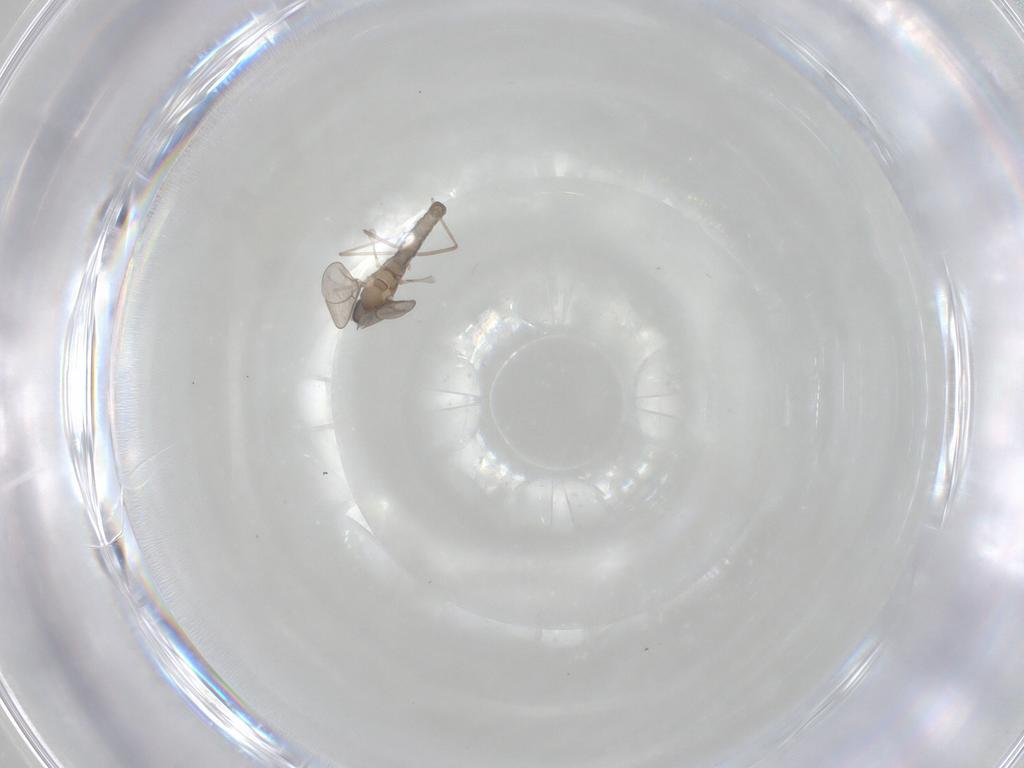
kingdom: Animalia
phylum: Arthropoda
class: Insecta
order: Diptera
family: Cecidomyiidae
